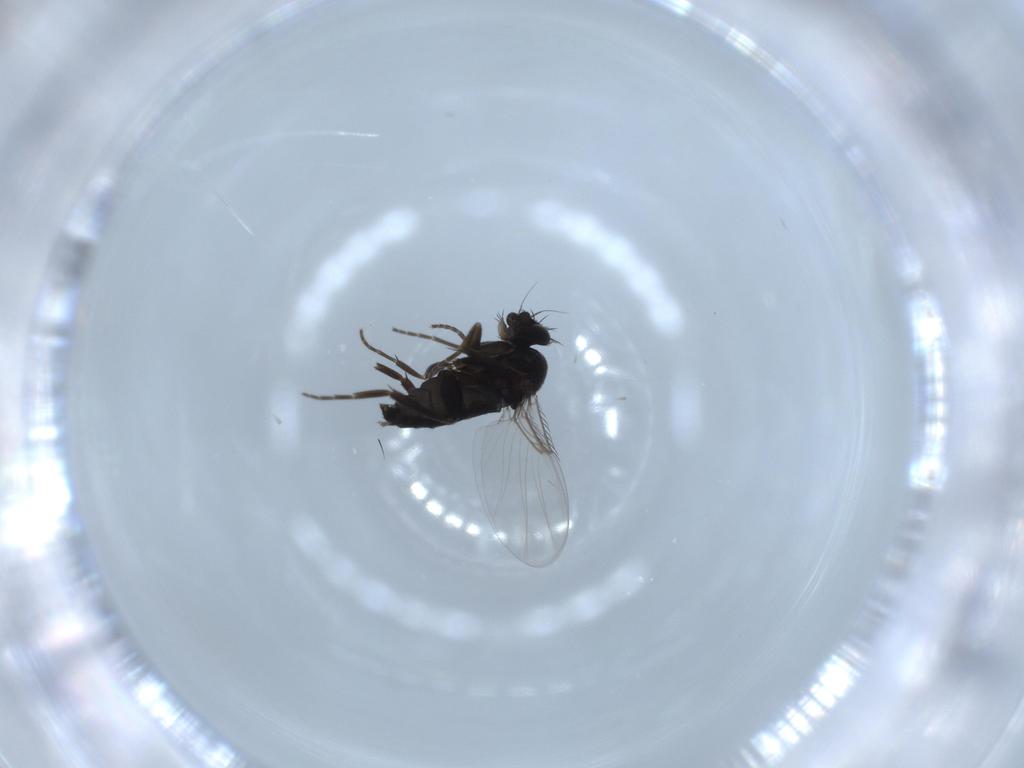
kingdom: Animalia
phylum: Arthropoda
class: Insecta
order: Diptera
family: Phoridae
